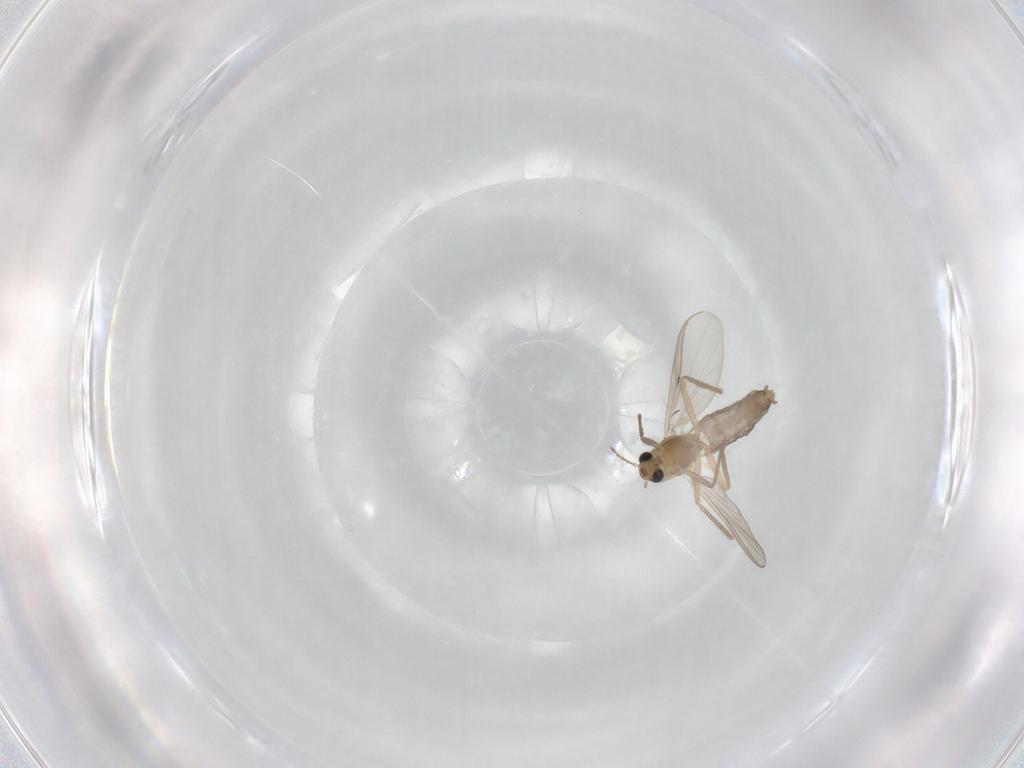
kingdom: Animalia
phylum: Arthropoda
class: Insecta
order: Diptera
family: Chironomidae
